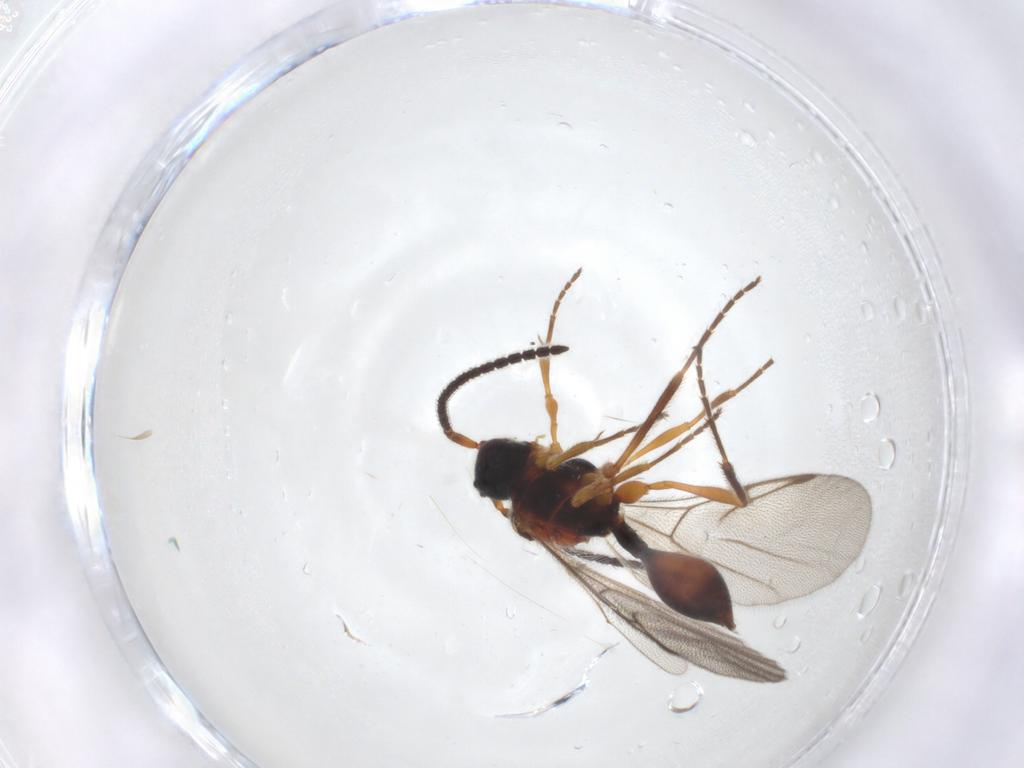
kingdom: Animalia
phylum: Arthropoda
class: Insecta
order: Hymenoptera
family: Diapriidae
